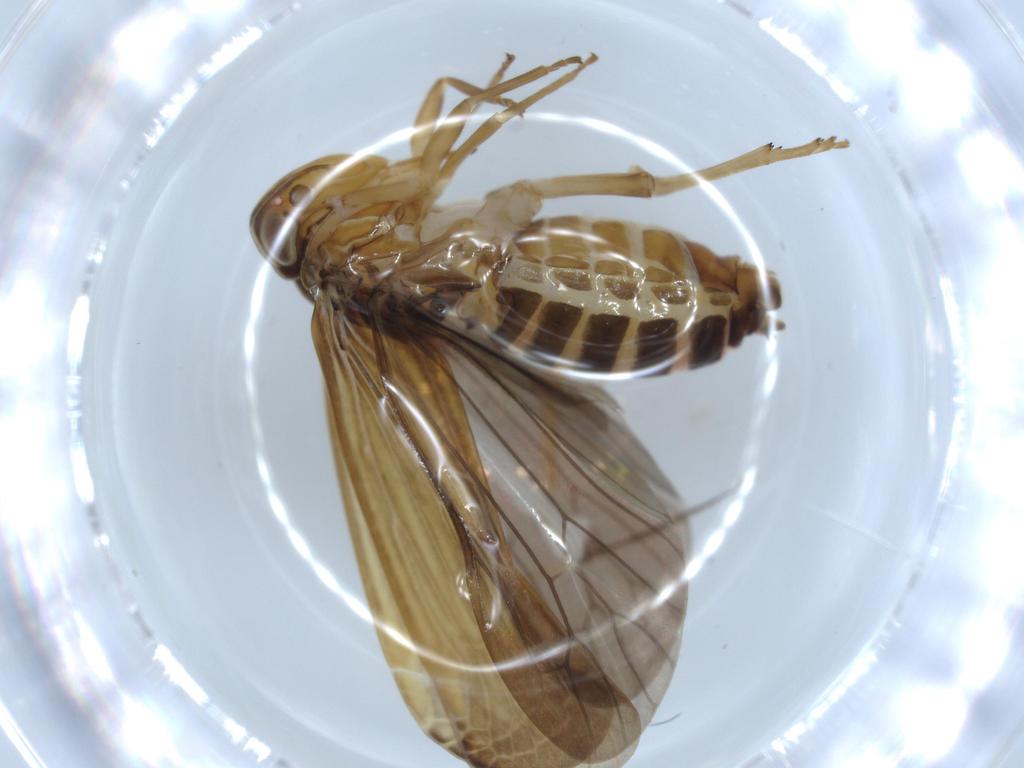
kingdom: Animalia
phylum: Arthropoda
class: Insecta
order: Hemiptera
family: Achilidae
